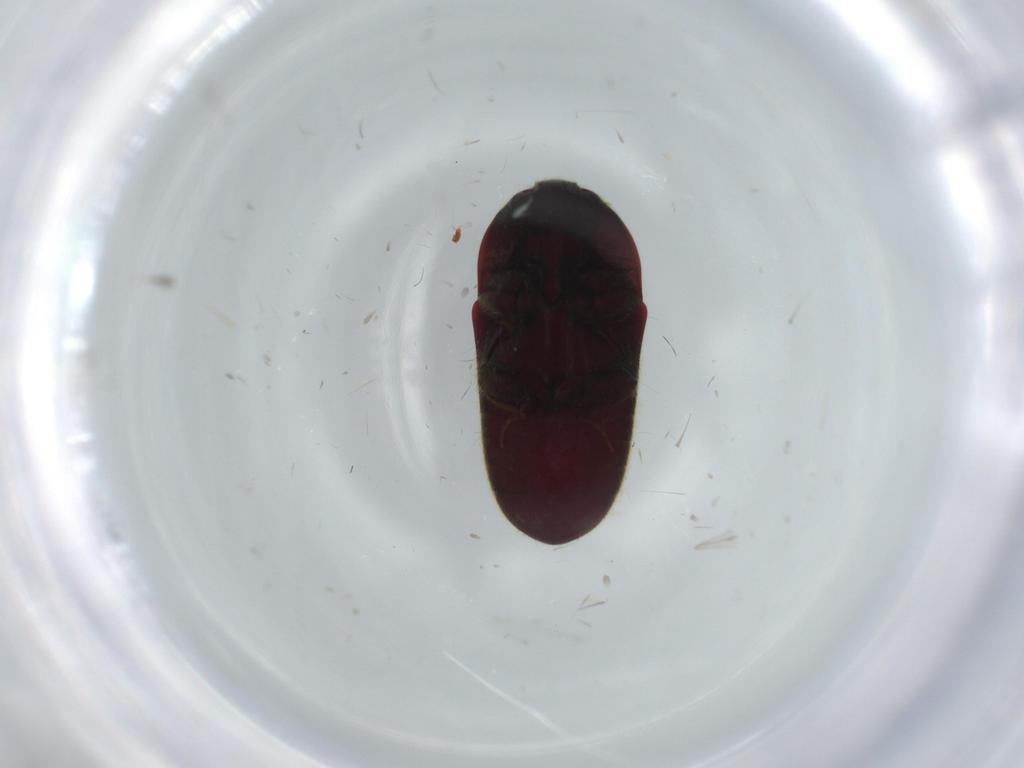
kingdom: Animalia
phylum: Arthropoda
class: Insecta
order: Coleoptera
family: Throscidae
